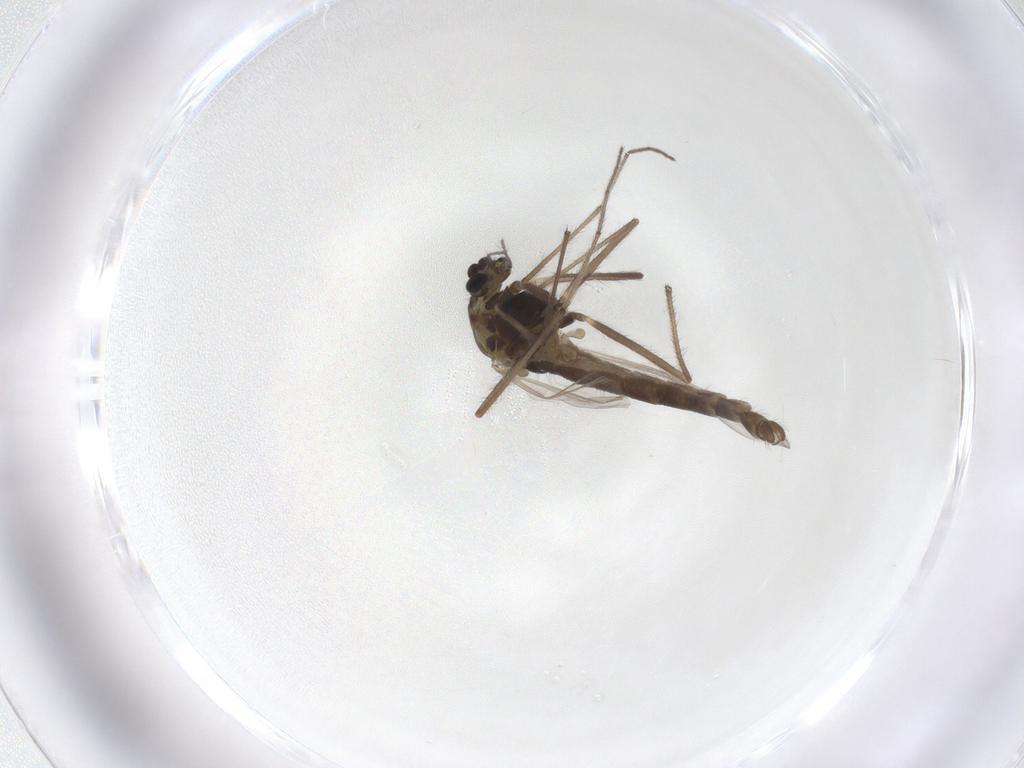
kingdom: Animalia
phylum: Arthropoda
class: Insecta
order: Diptera
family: Chironomidae
